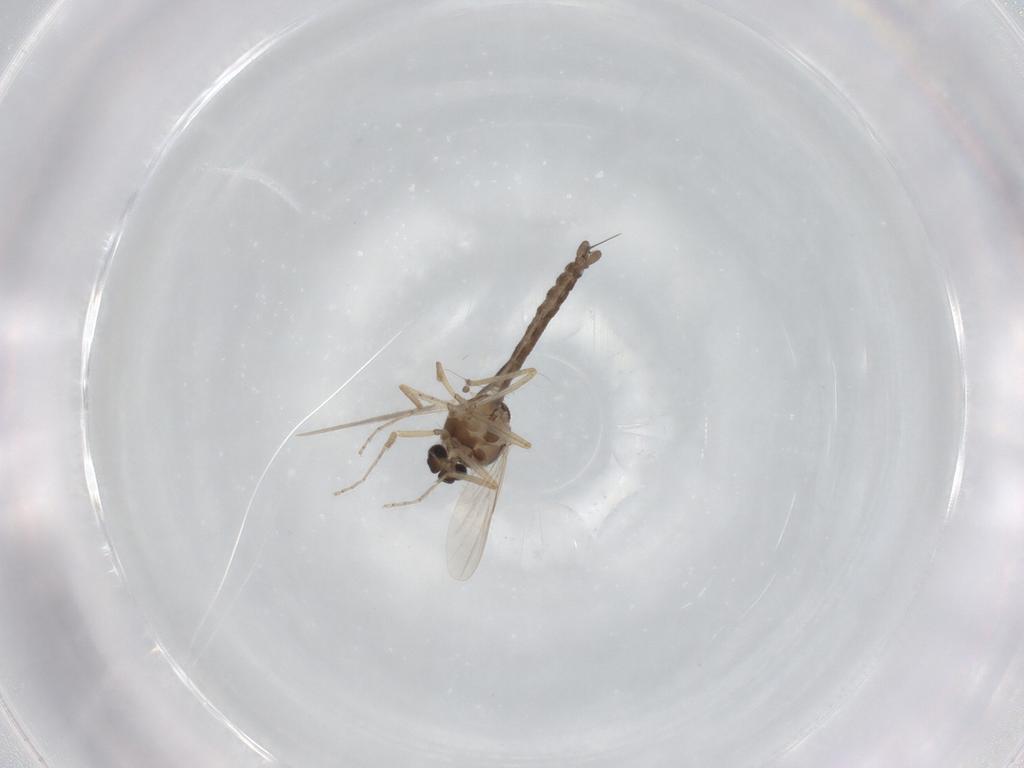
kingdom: Animalia
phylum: Arthropoda
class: Insecta
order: Diptera
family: Ceratopogonidae
